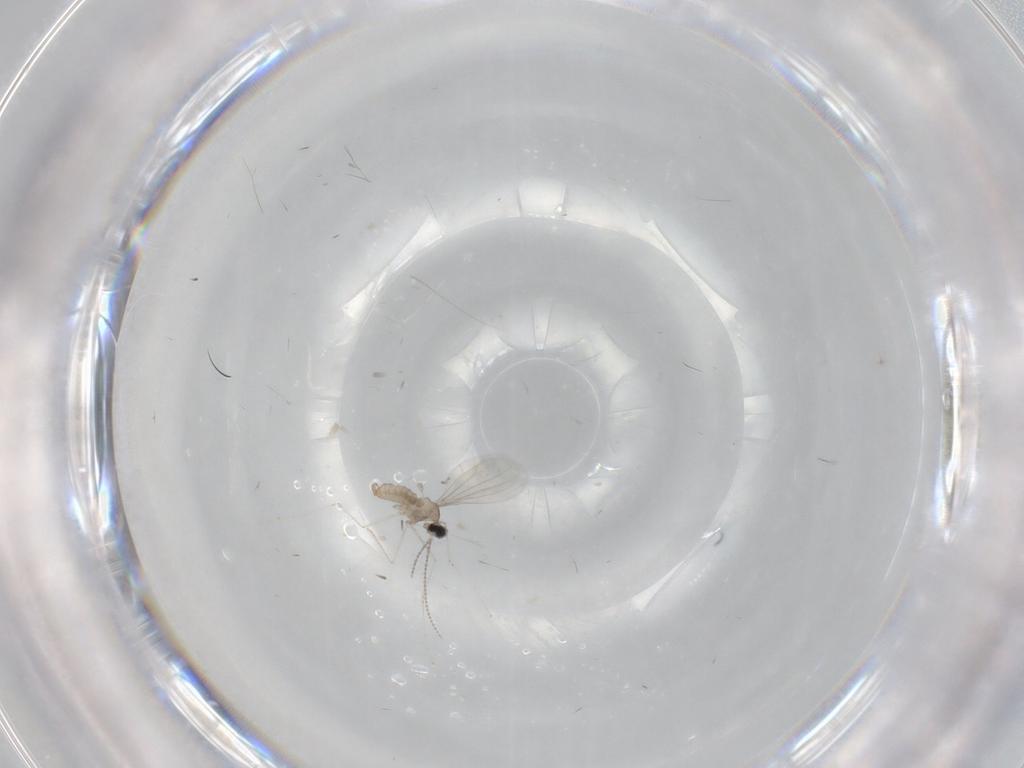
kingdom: Animalia
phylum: Arthropoda
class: Insecta
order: Diptera
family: Cecidomyiidae
